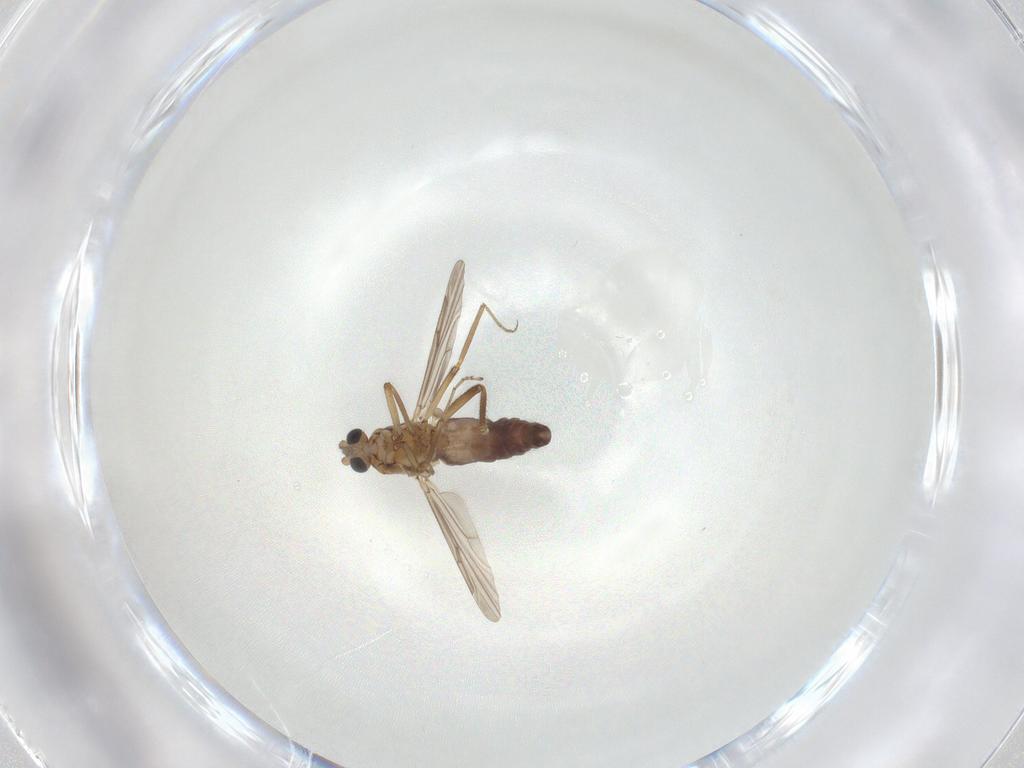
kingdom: Animalia
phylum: Arthropoda
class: Insecta
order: Diptera
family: Ceratopogonidae
